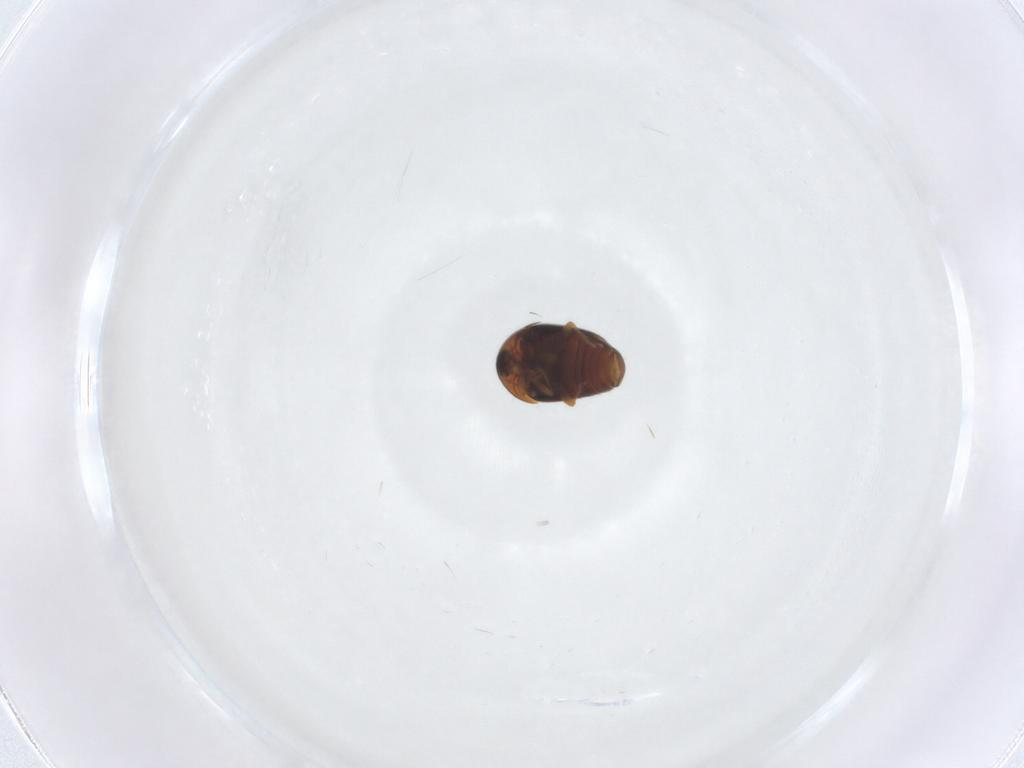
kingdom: Animalia
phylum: Arthropoda
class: Insecta
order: Coleoptera
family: Corylophidae
